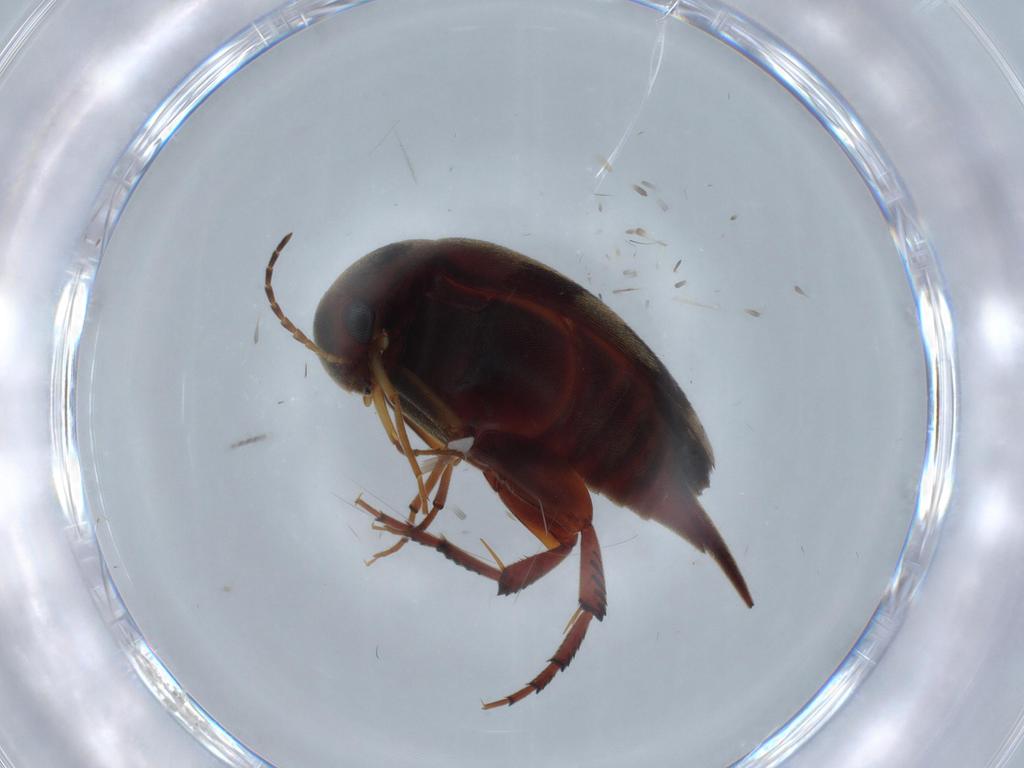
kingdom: Animalia
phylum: Arthropoda
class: Insecta
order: Coleoptera
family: Mordellidae
